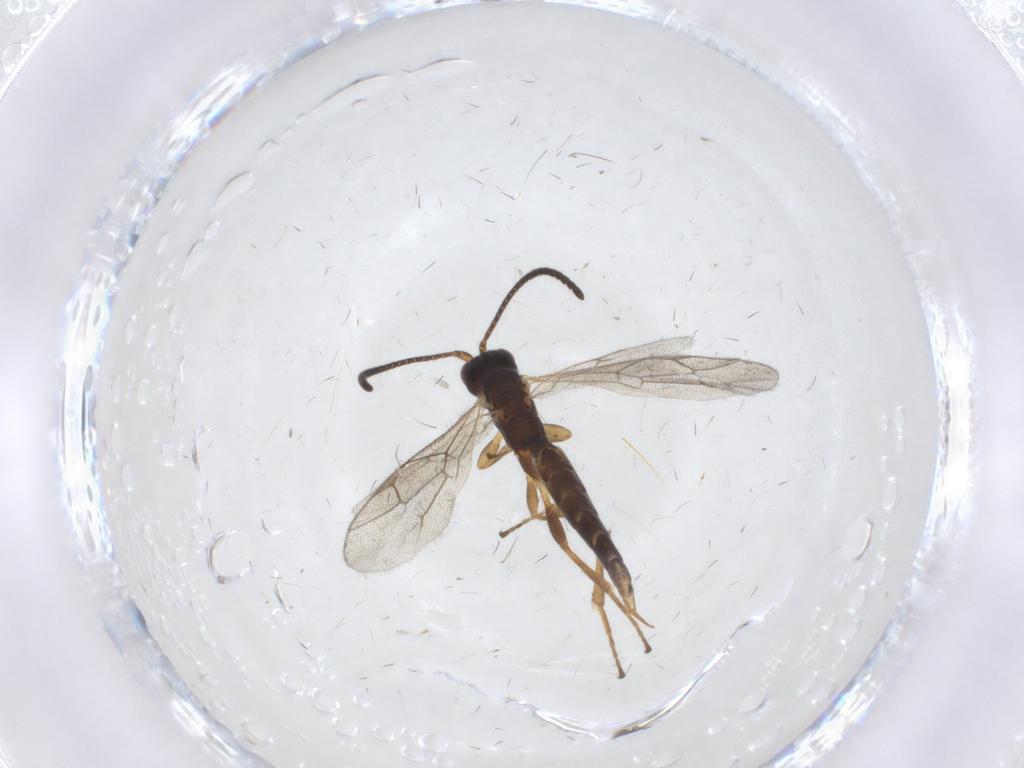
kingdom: Animalia
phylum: Arthropoda
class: Insecta
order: Hymenoptera
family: Ichneumonidae
